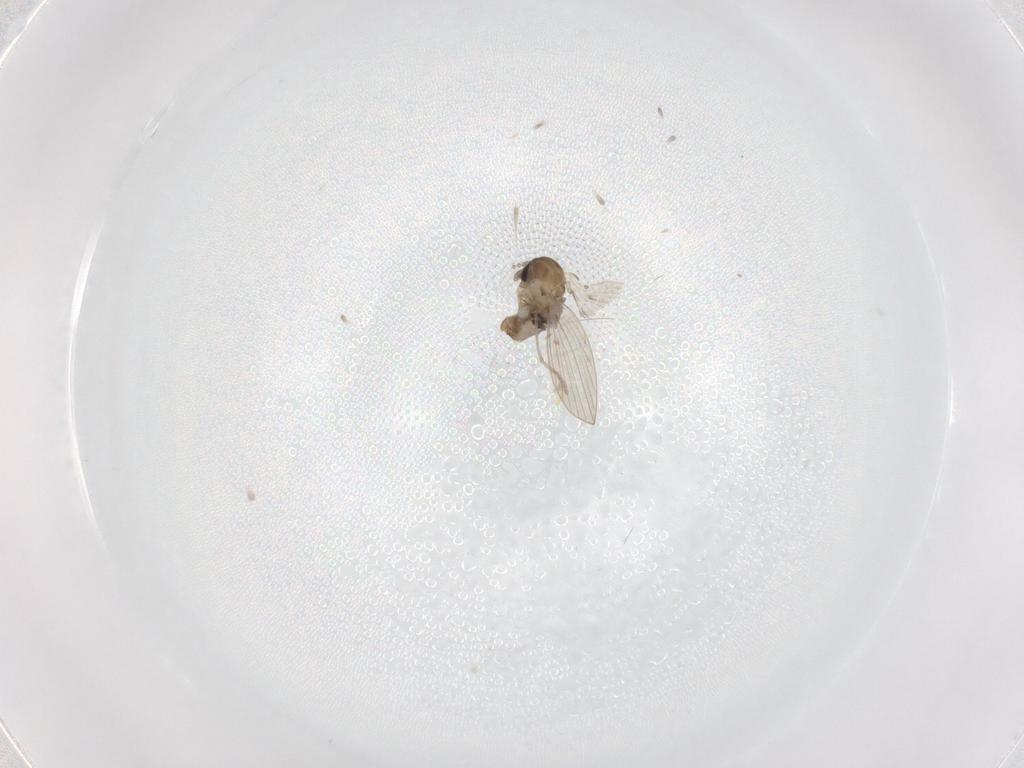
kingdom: Animalia
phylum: Arthropoda
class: Insecta
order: Diptera
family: Psychodidae
